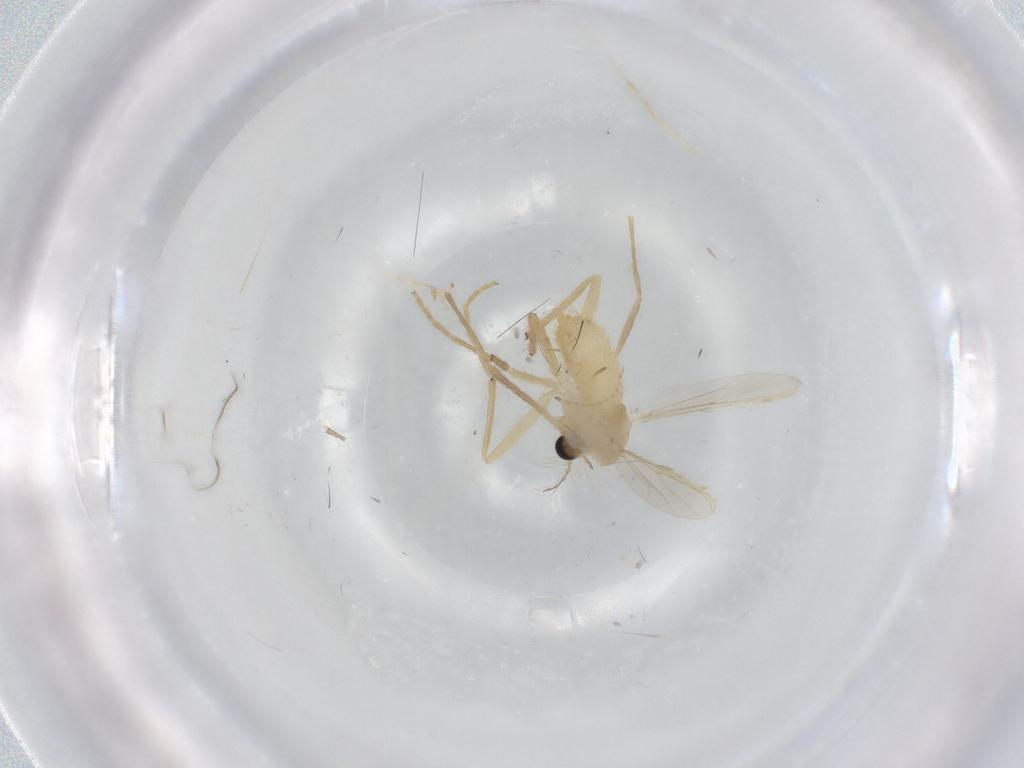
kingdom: Animalia
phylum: Arthropoda
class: Insecta
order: Diptera
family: Chironomidae
